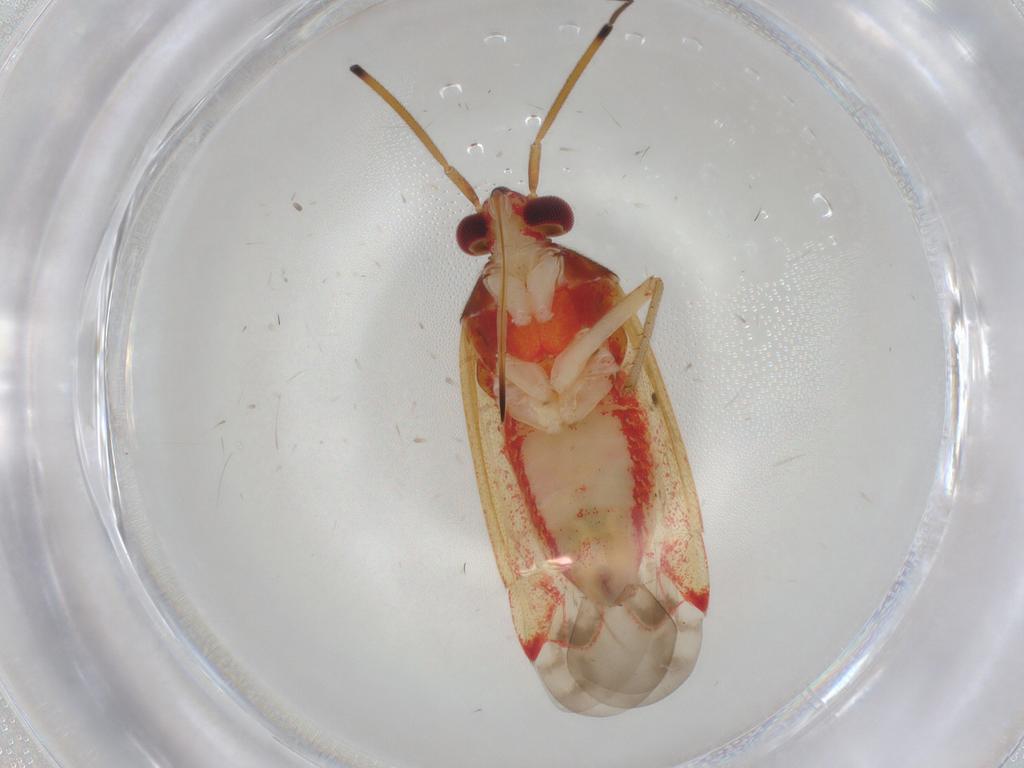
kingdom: Animalia
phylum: Arthropoda
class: Insecta
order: Hemiptera
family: Miridae
